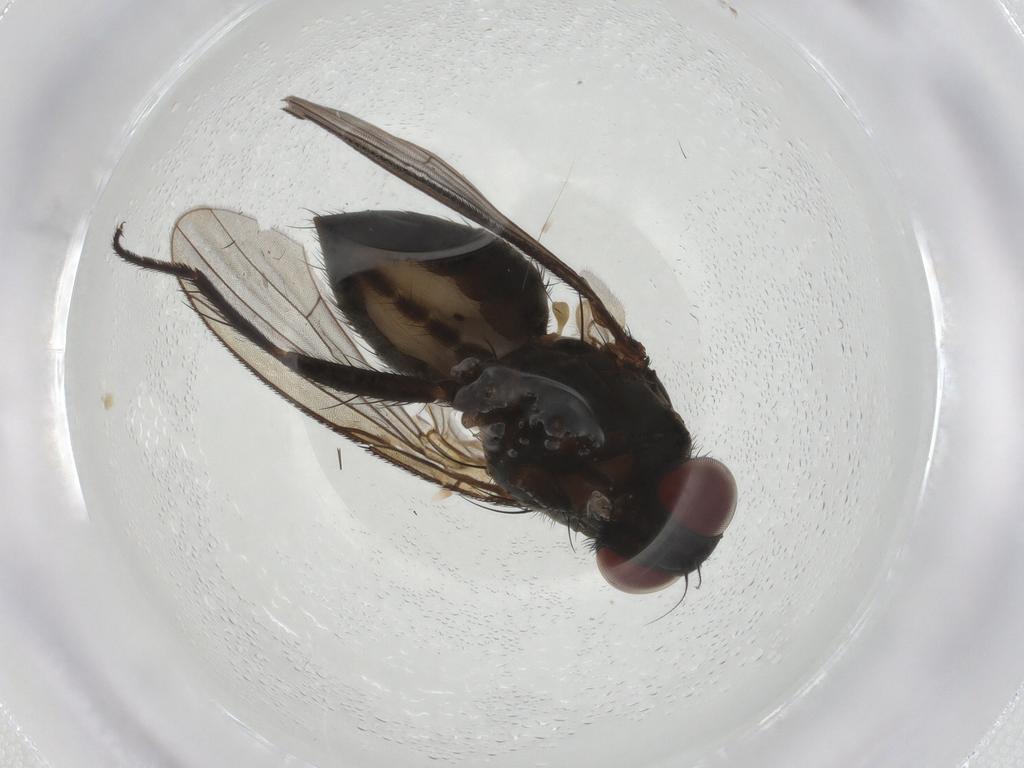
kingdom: Animalia
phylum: Arthropoda
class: Insecta
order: Diptera
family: Muscidae
